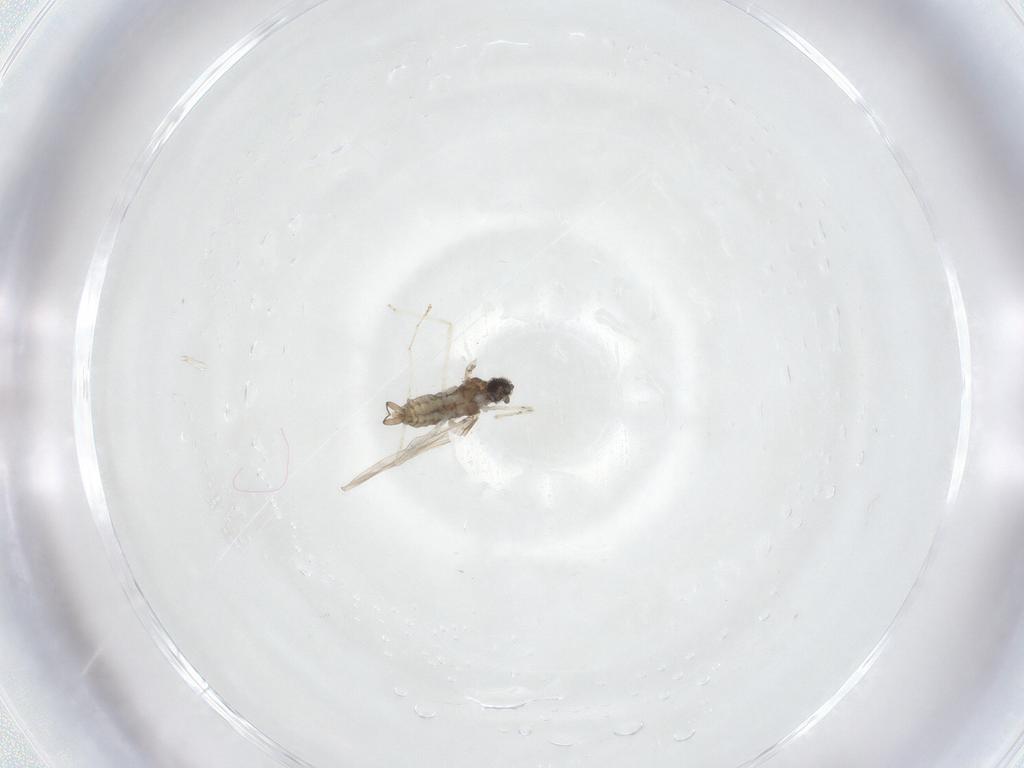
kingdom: Animalia
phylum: Arthropoda
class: Insecta
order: Diptera
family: Cecidomyiidae
